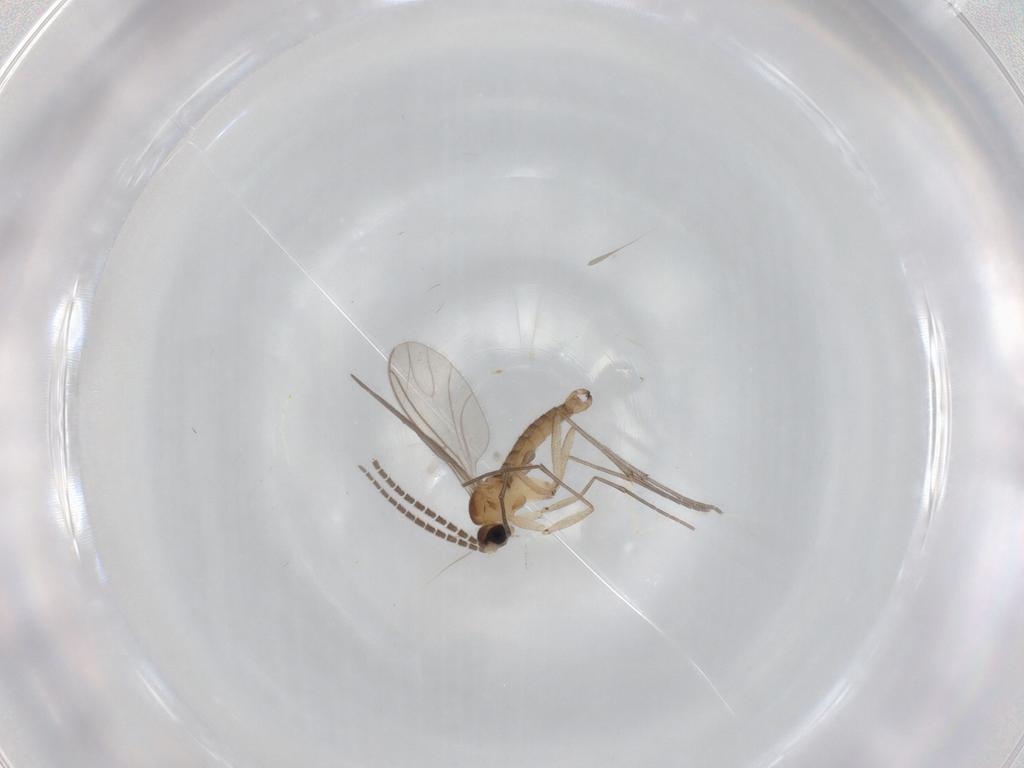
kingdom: Animalia
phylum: Arthropoda
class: Insecta
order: Diptera
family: Sciaridae
